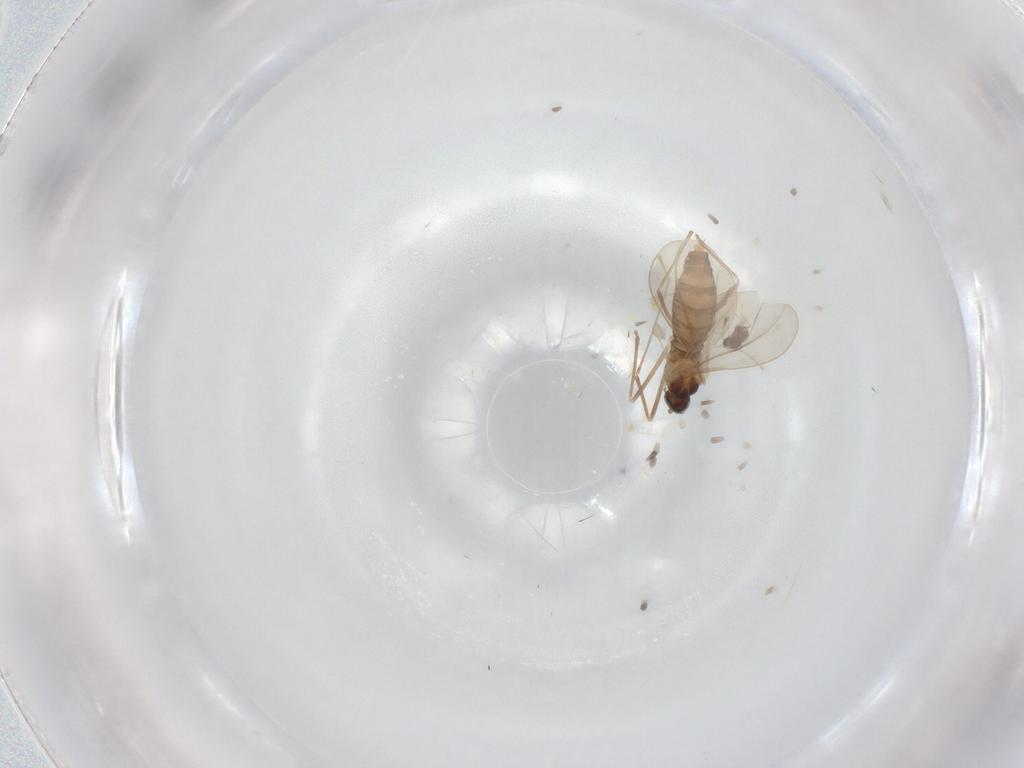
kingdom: Animalia
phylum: Arthropoda
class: Insecta
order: Diptera
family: Cecidomyiidae
